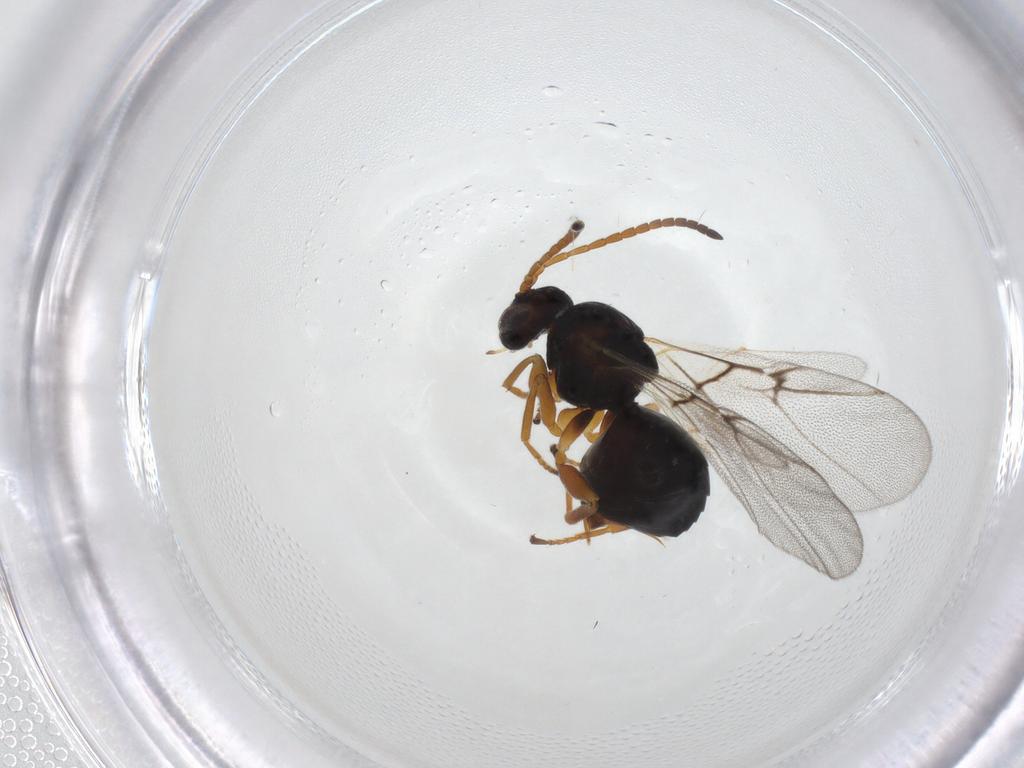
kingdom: Animalia
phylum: Arthropoda
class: Insecta
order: Hymenoptera
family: Cynipidae
